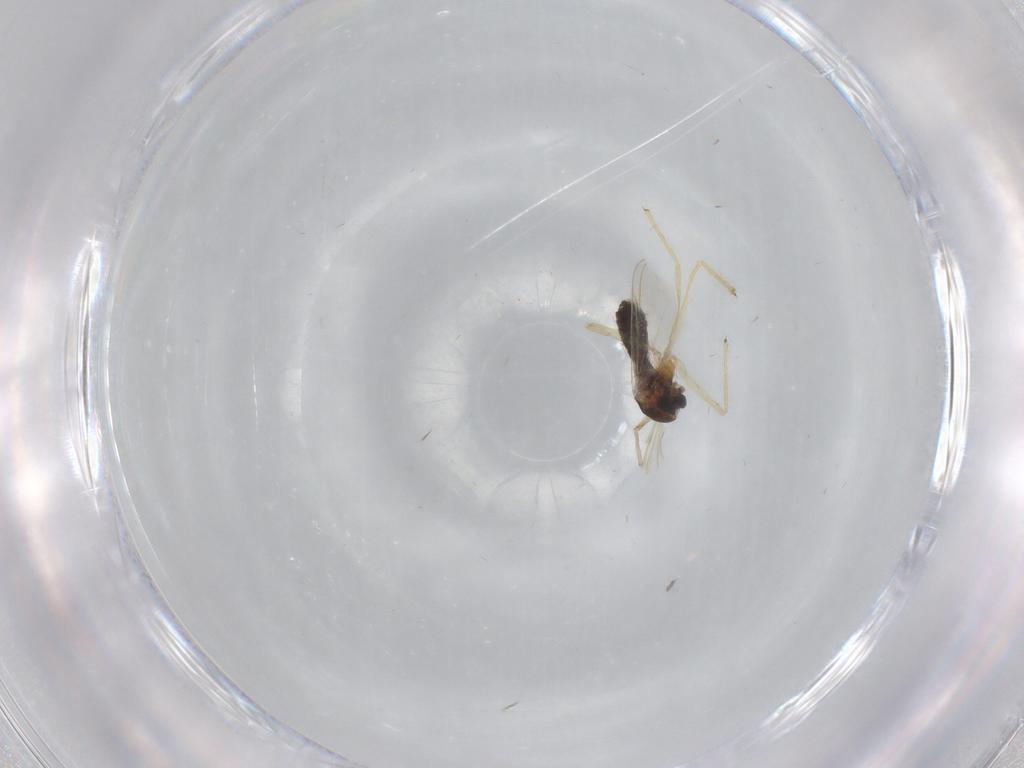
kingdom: Animalia
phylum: Arthropoda
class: Insecta
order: Diptera
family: Chironomidae
